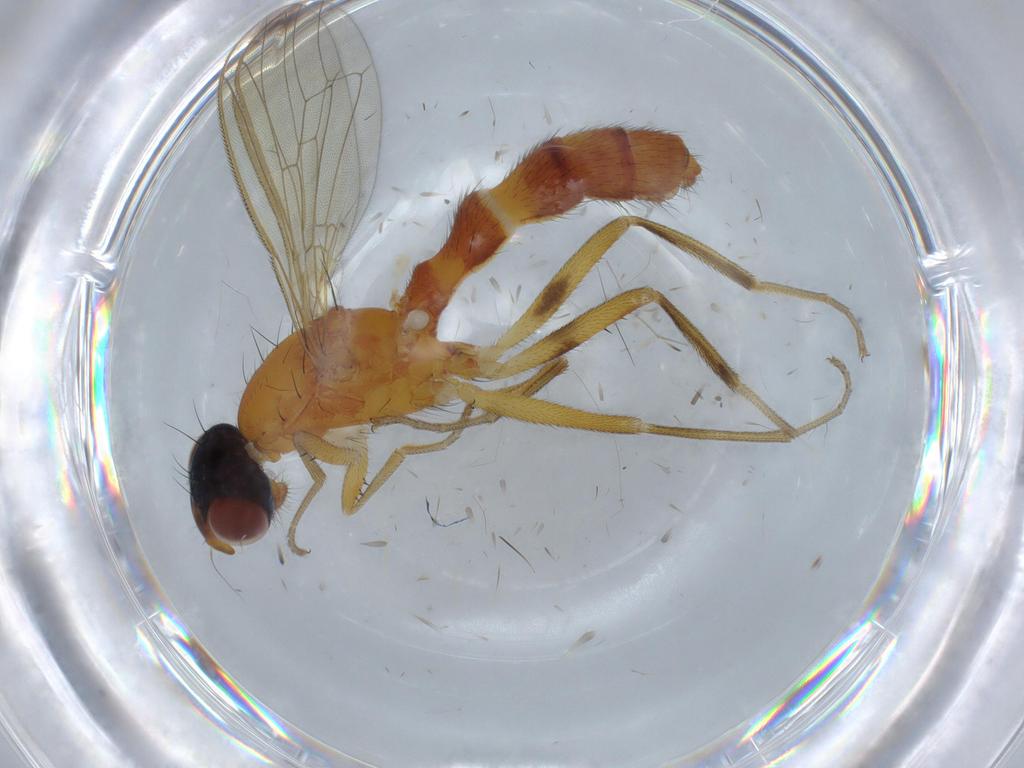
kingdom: Animalia
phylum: Arthropoda
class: Insecta
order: Diptera
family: Richardiidae
